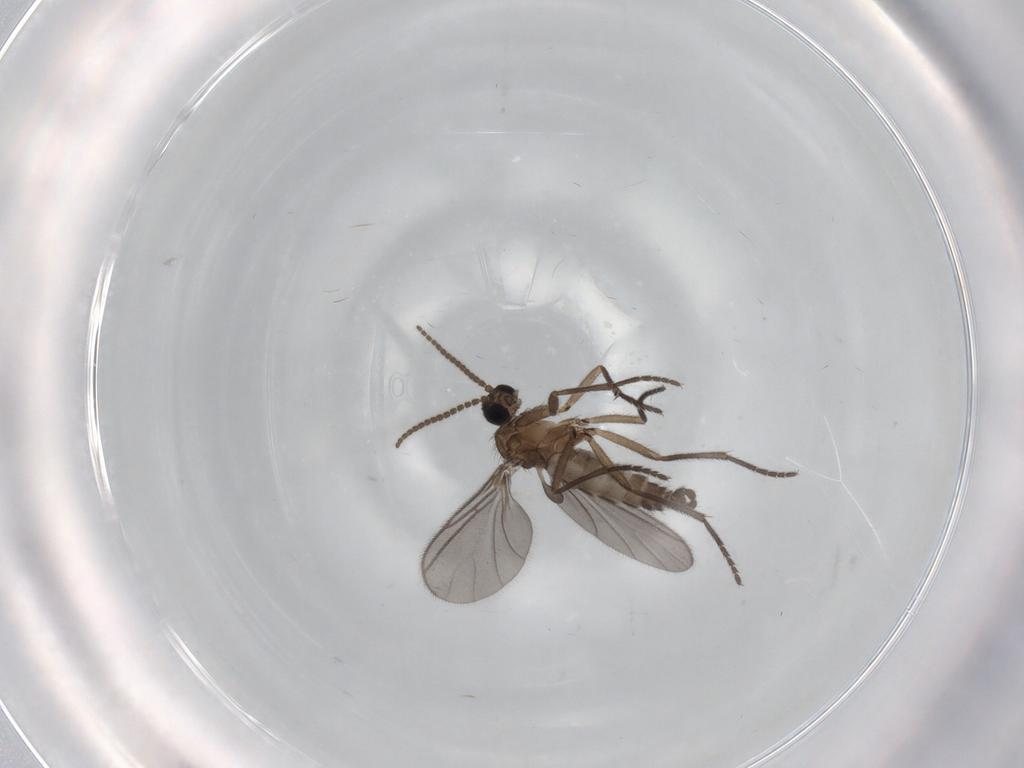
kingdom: Animalia
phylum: Arthropoda
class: Insecta
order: Diptera
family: Sciaridae
